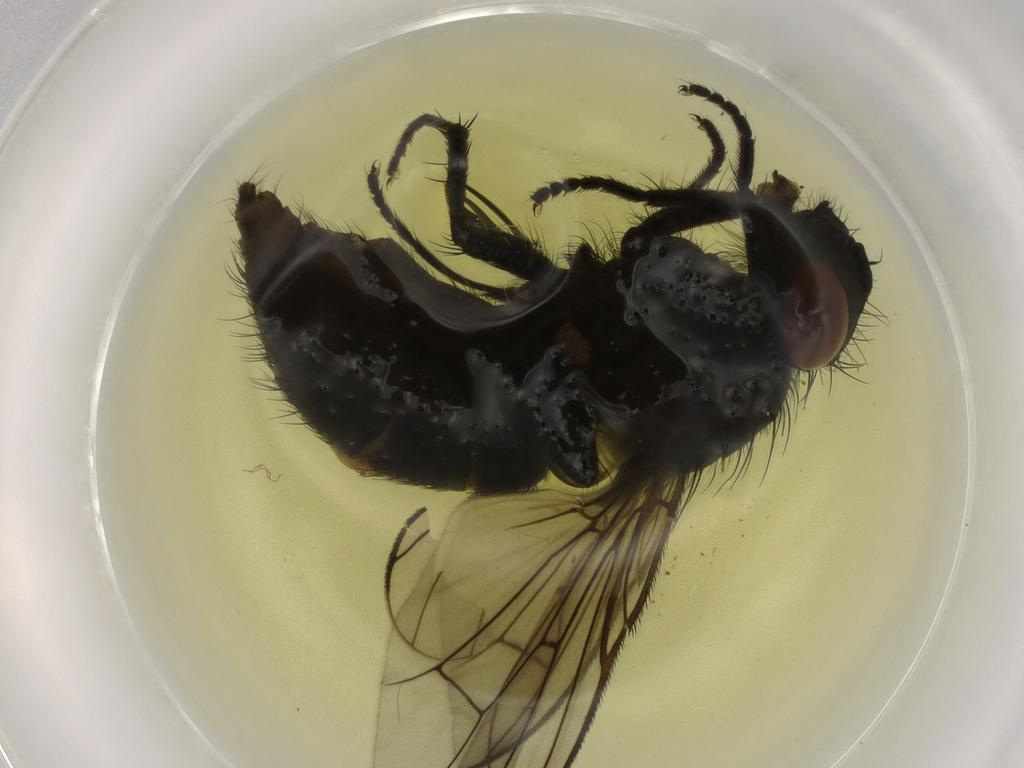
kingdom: Animalia
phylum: Arthropoda
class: Insecta
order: Diptera
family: Muscidae
